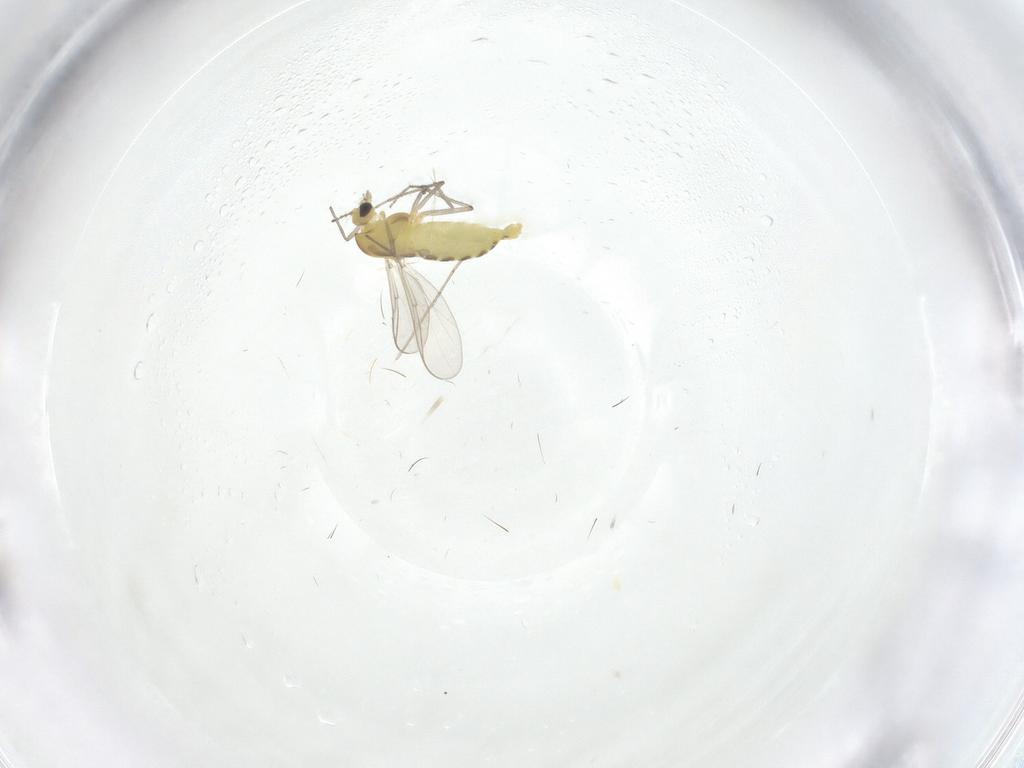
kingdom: Animalia
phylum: Arthropoda
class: Insecta
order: Diptera
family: Chironomidae
